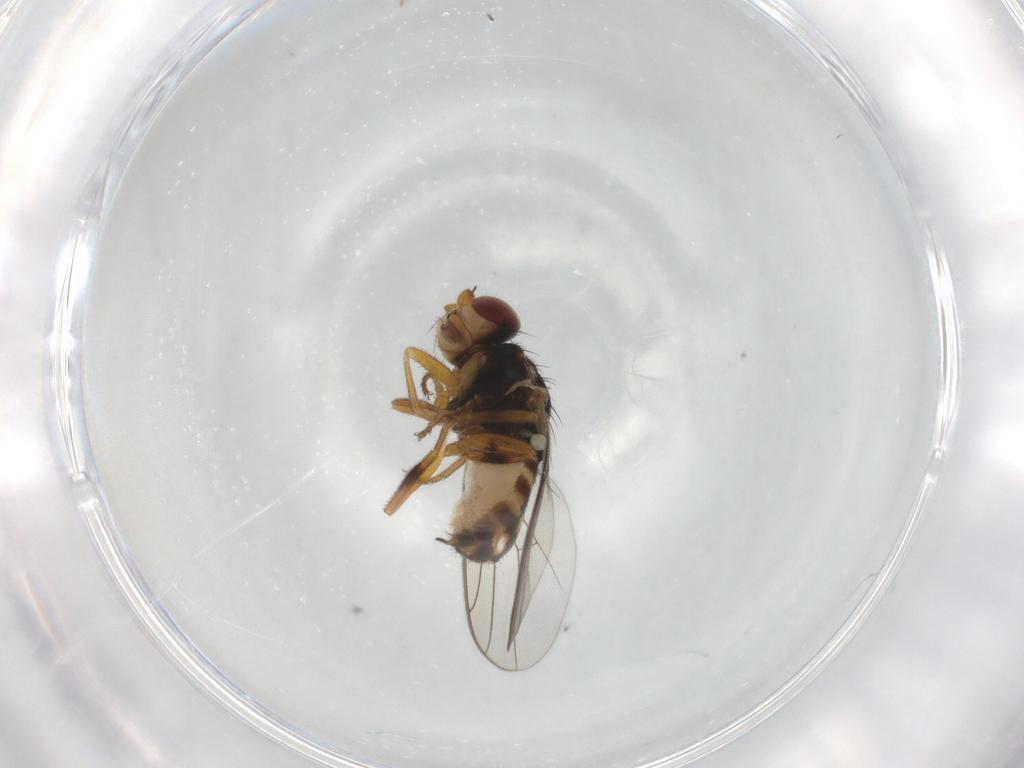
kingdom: Animalia
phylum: Arthropoda
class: Insecta
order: Diptera
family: Chloropidae
